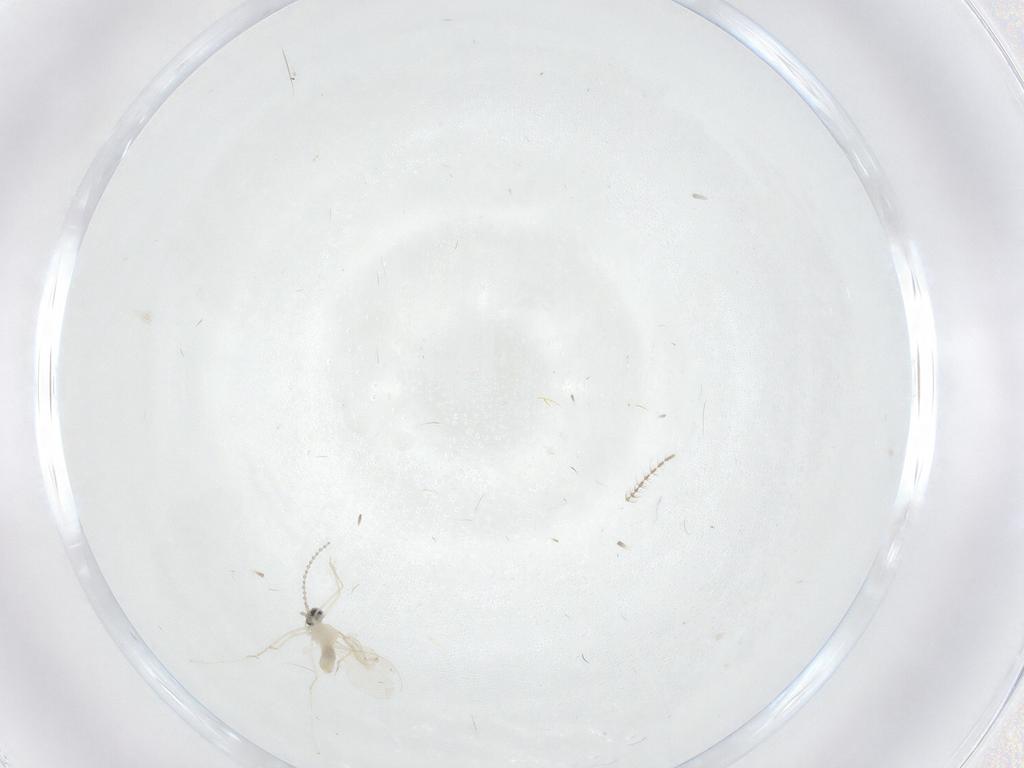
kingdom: Animalia
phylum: Arthropoda
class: Insecta
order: Diptera
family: Ceratopogonidae
